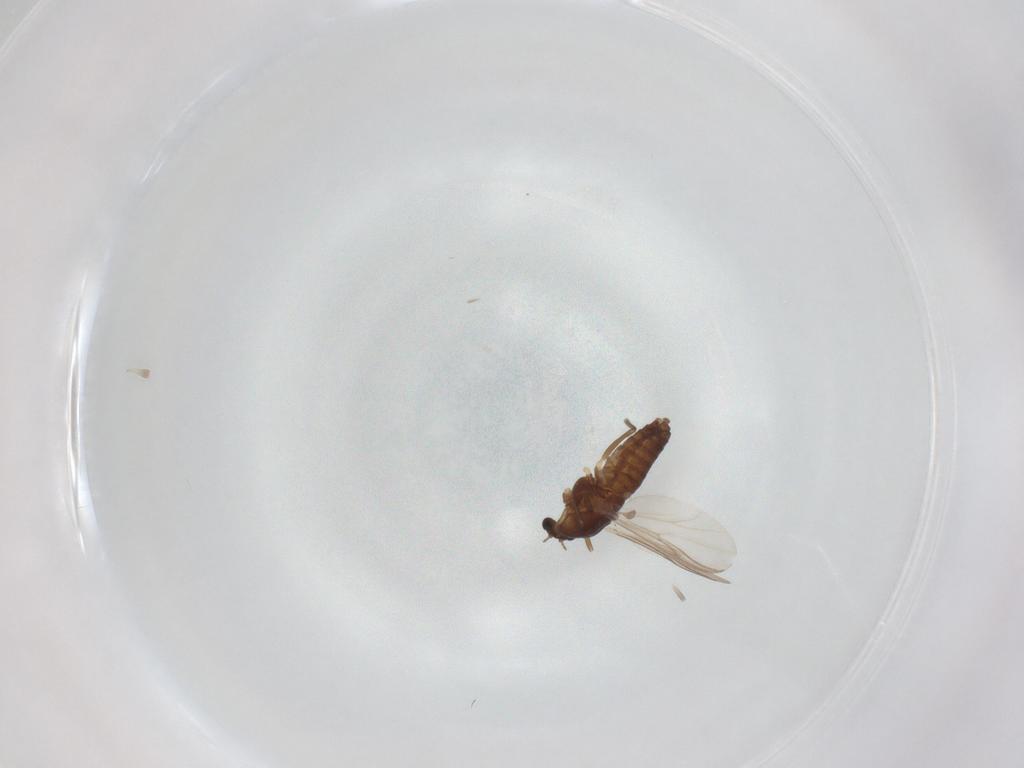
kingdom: Animalia
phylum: Arthropoda
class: Insecta
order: Diptera
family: Chironomidae
